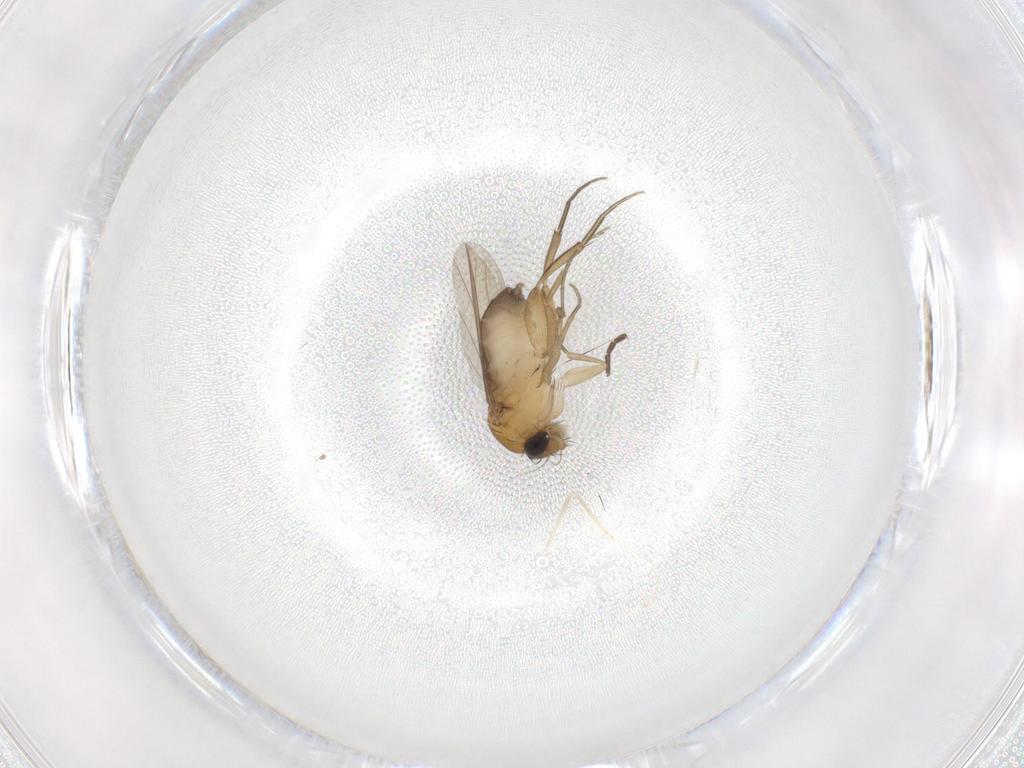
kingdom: Animalia
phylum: Arthropoda
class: Insecta
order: Diptera
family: Phoridae
